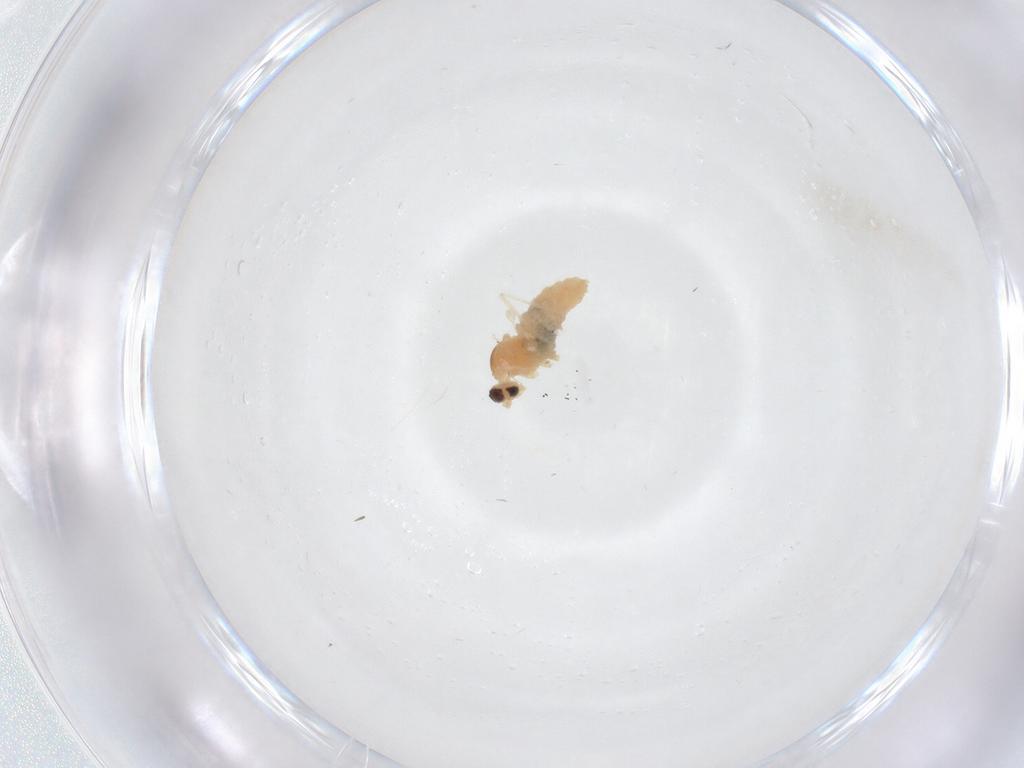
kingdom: Animalia
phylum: Arthropoda
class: Insecta
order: Diptera
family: Cecidomyiidae
